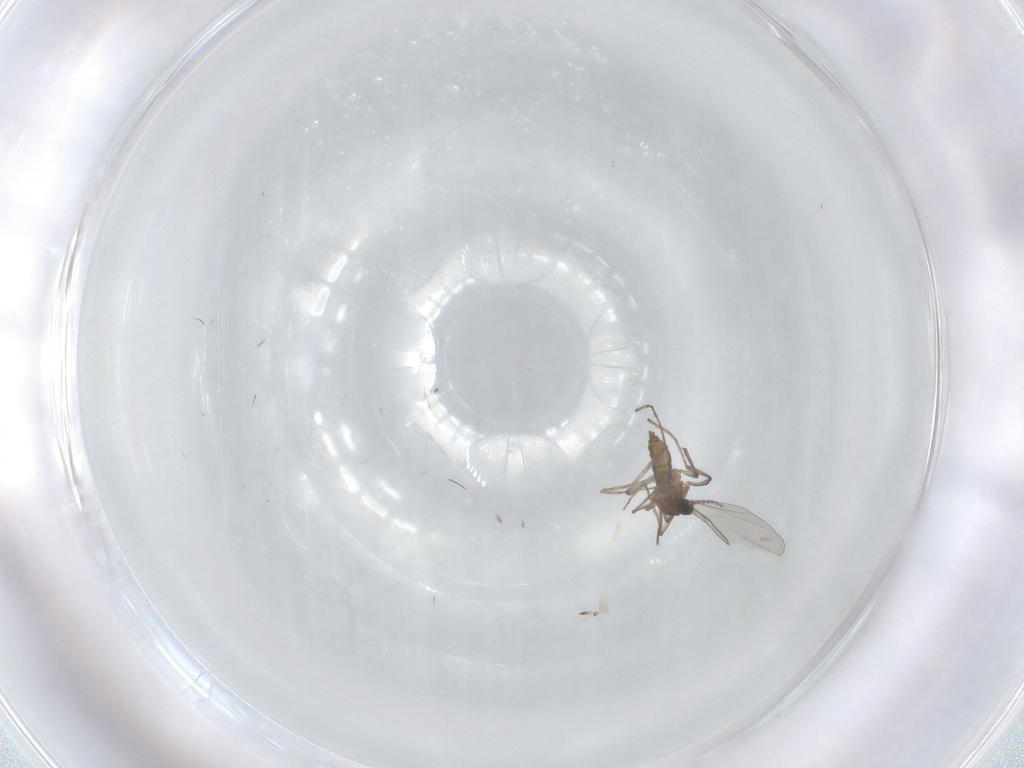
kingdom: Animalia
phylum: Arthropoda
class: Insecta
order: Diptera
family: Cecidomyiidae
